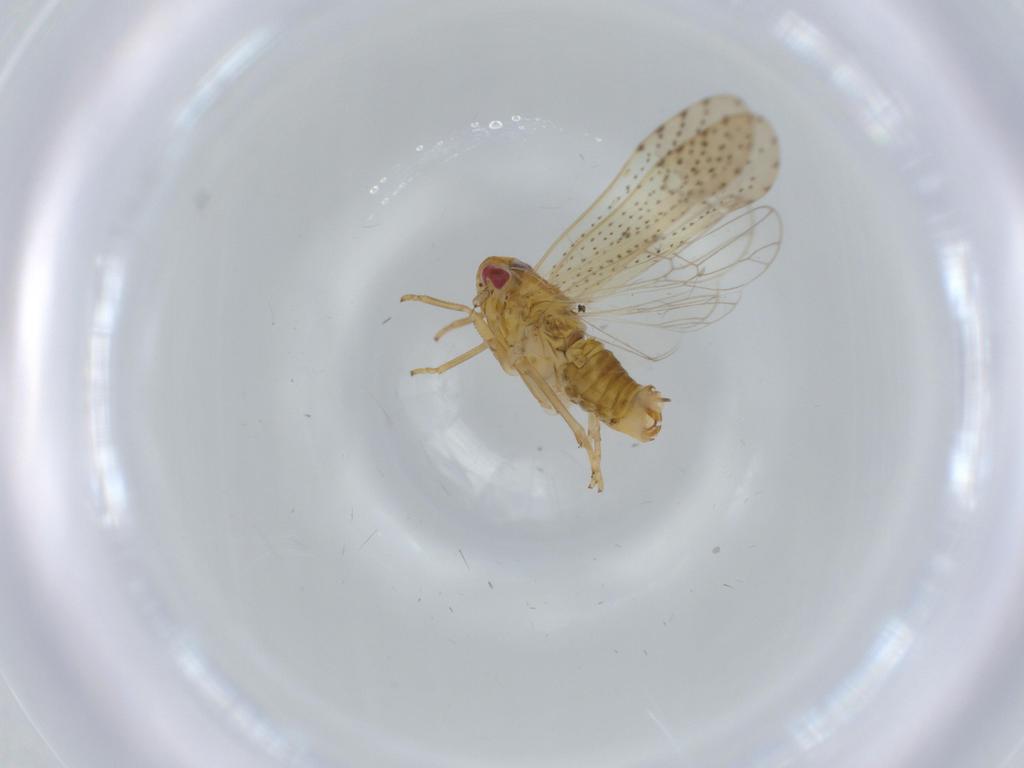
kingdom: Animalia
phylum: Arthropoda
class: Insecta
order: Hemiptera
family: Delphacidae
